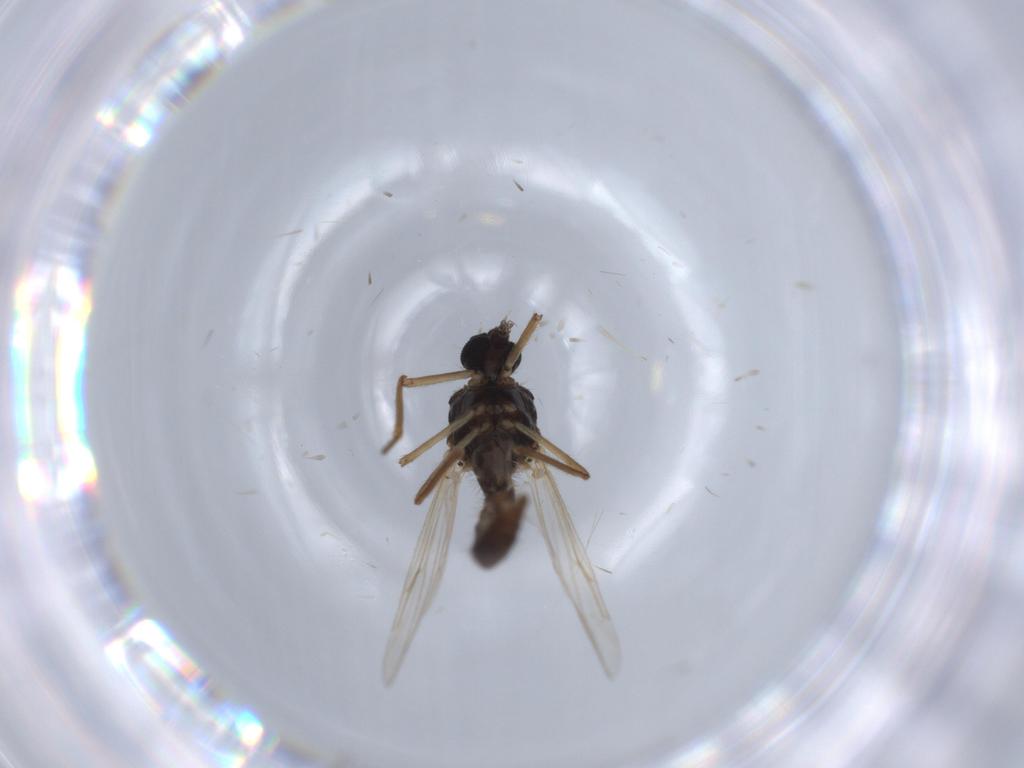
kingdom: Animalia
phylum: Arthropoda
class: Insecta
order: Diptera
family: Ceratopogonidae
